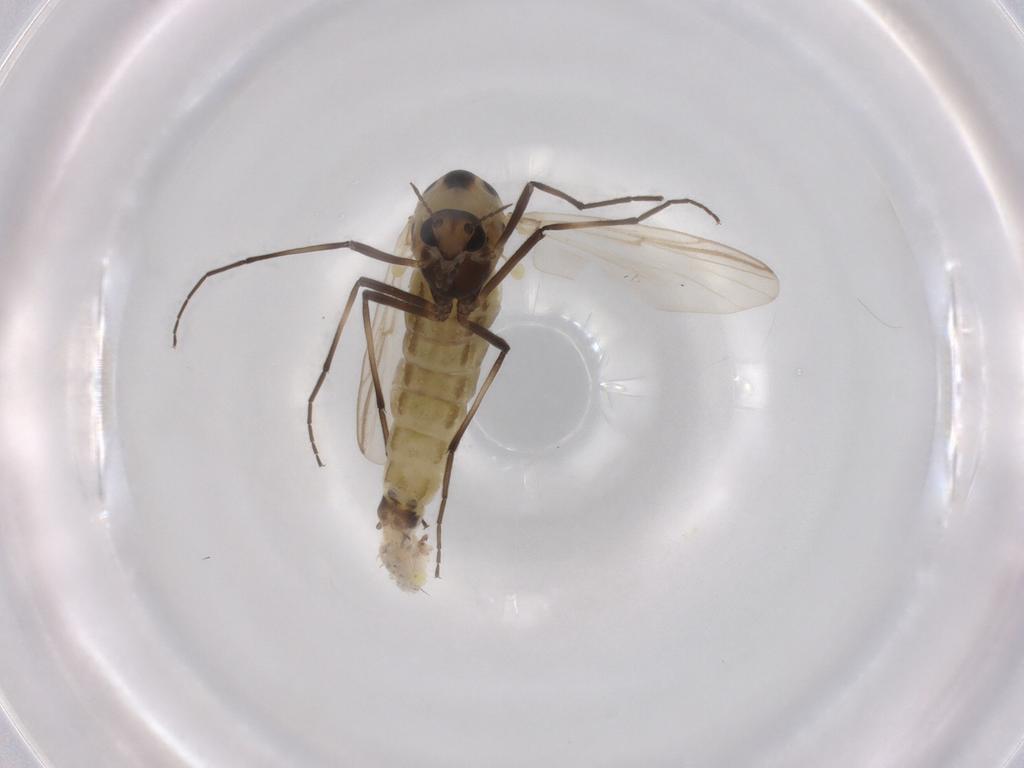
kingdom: Animalia
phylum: Arthropoda
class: Insecta
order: Diptera
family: Chironomidae
